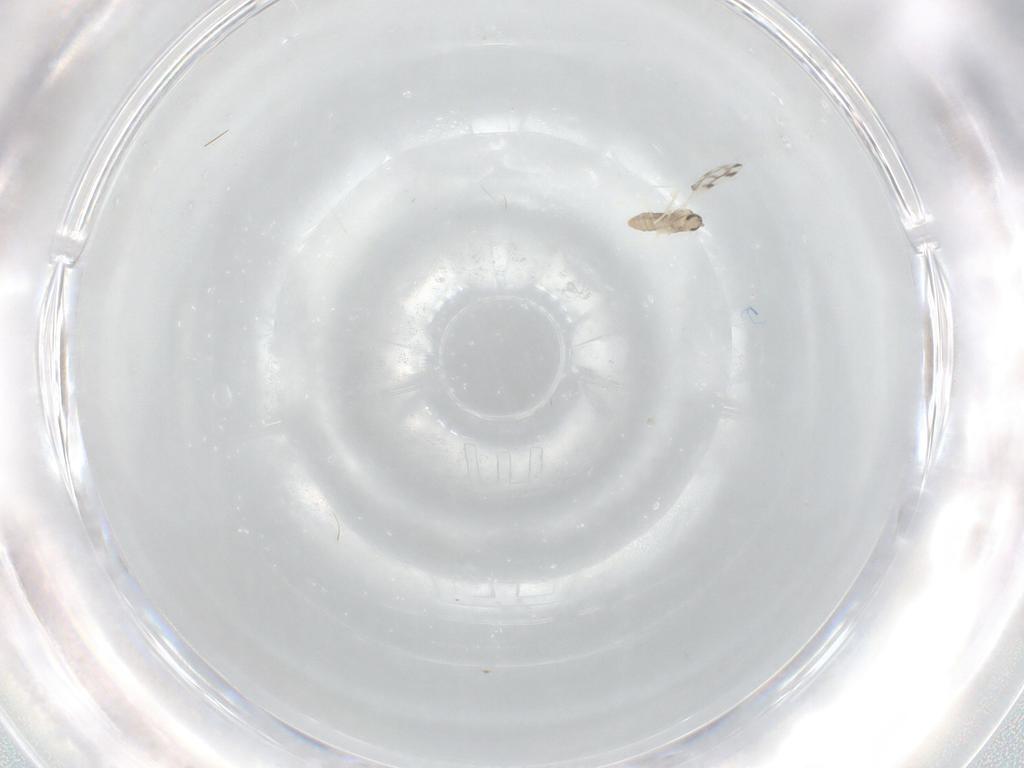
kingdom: Animalia
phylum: Arthropoda
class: Insecta
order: Diptera
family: Cecidomyiidae
